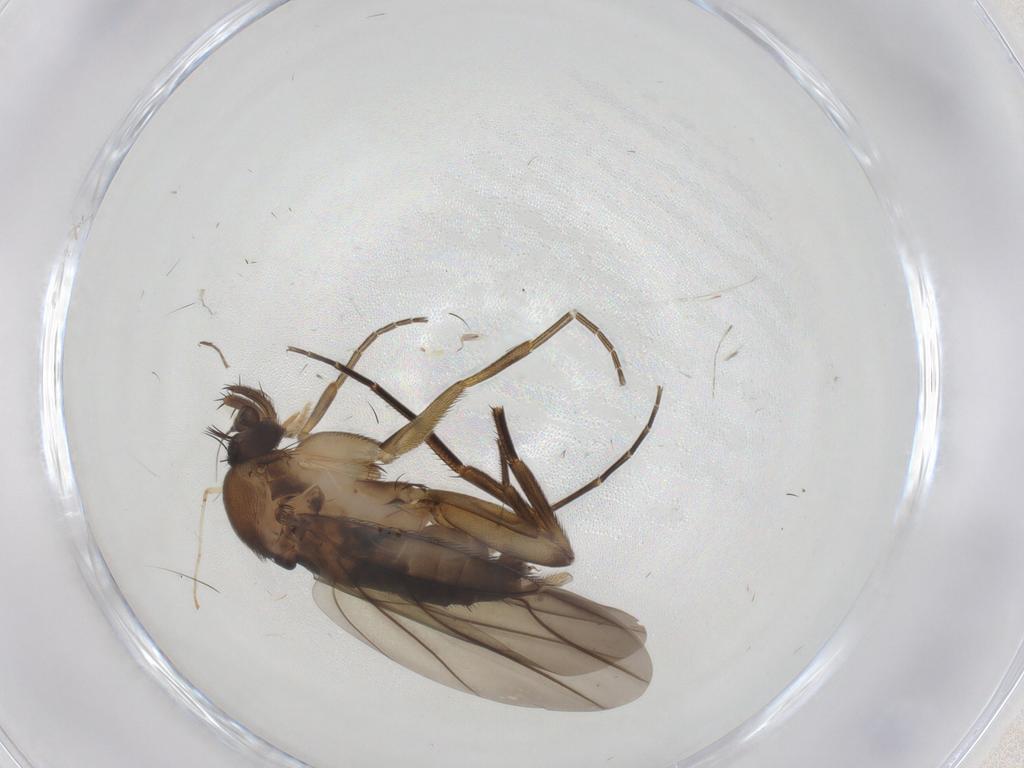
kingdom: Animalia
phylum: Arthropoda
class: Insecta
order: Diptera
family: Phoridae
